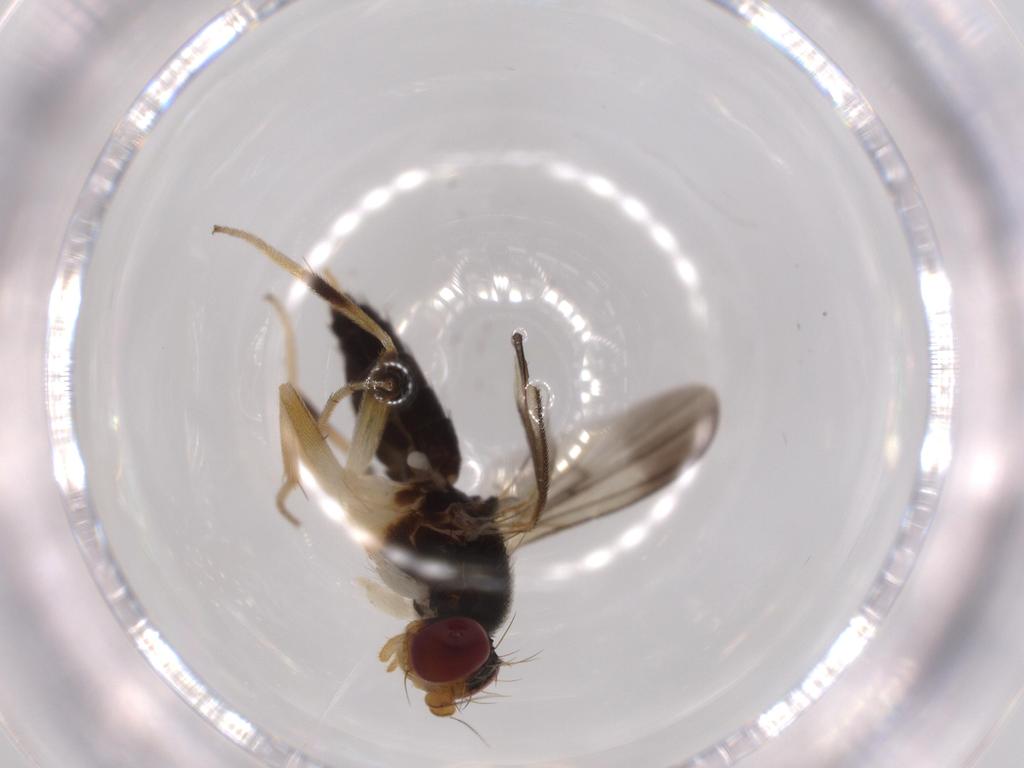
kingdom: Animalia
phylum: Arthropoda
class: Insecta
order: Diptera
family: Clusiidae
